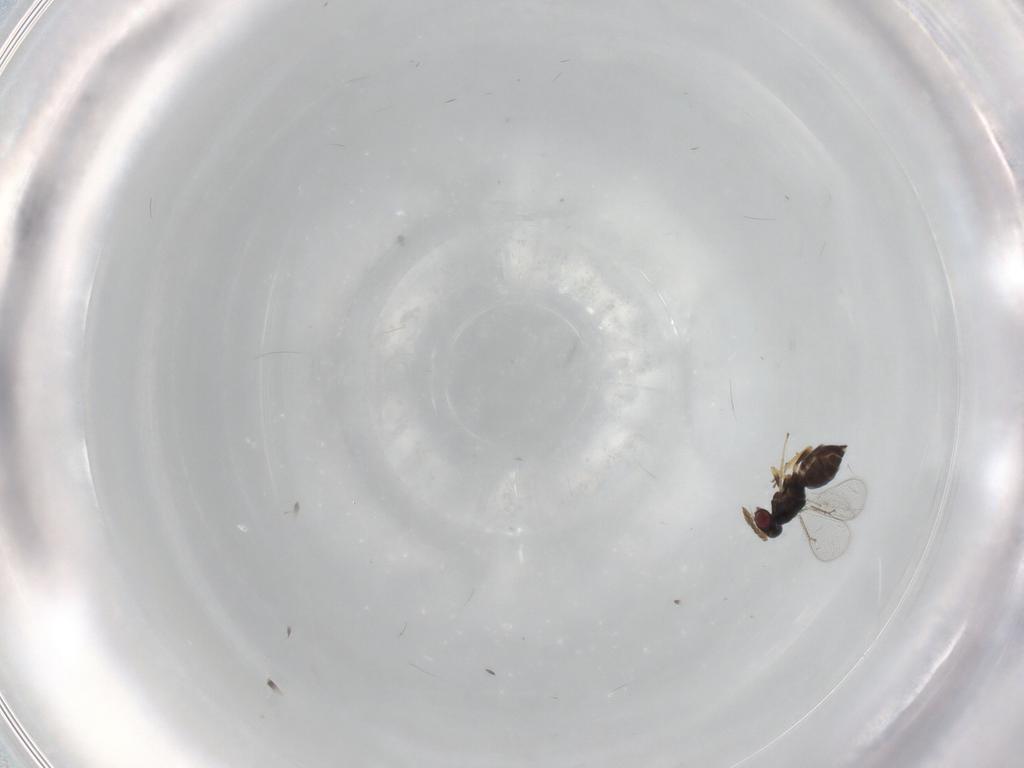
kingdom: Animalia
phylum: Arthropoda
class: Insecta
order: Hymenoptera
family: Eulophidae
